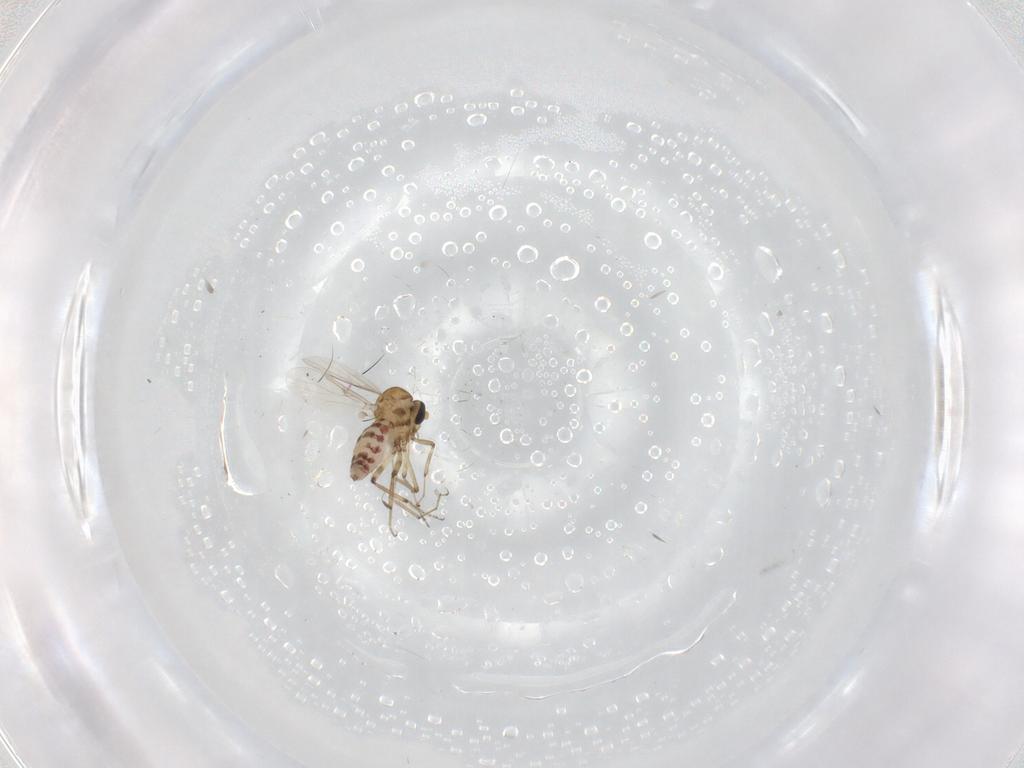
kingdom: Animalia
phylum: Arthropoda
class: Insecta
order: Diptera
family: Ceratopogonidae
